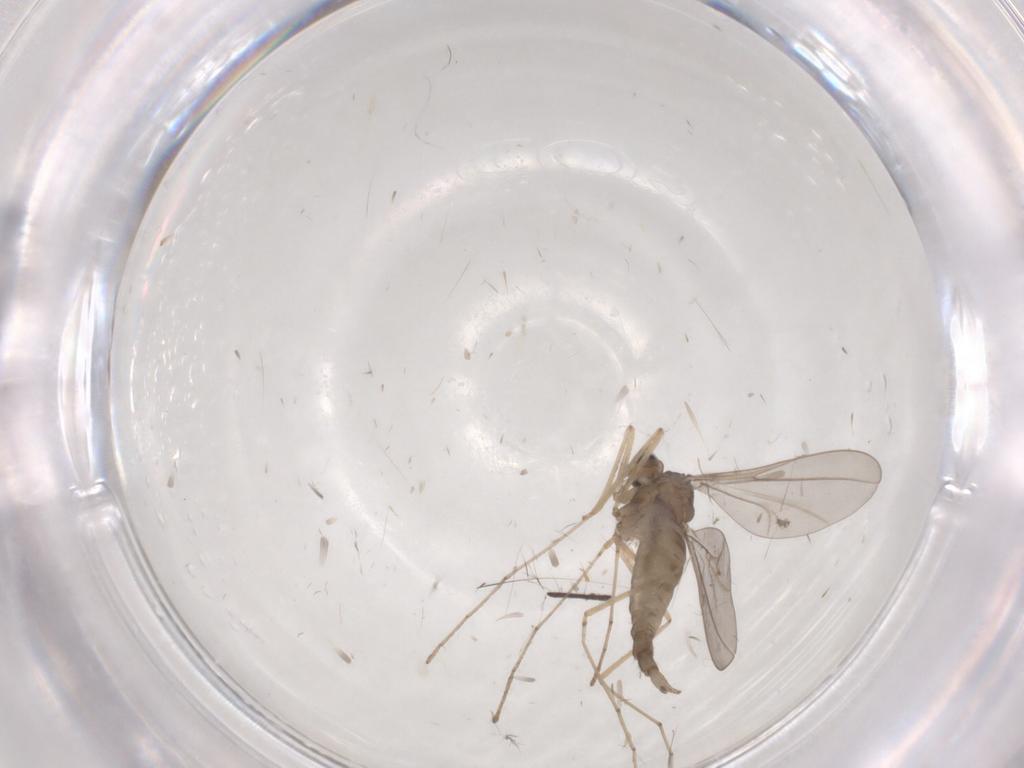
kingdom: Animalia
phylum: Arthropoda
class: Insecta
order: Diptera
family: Cecidomyiidae
